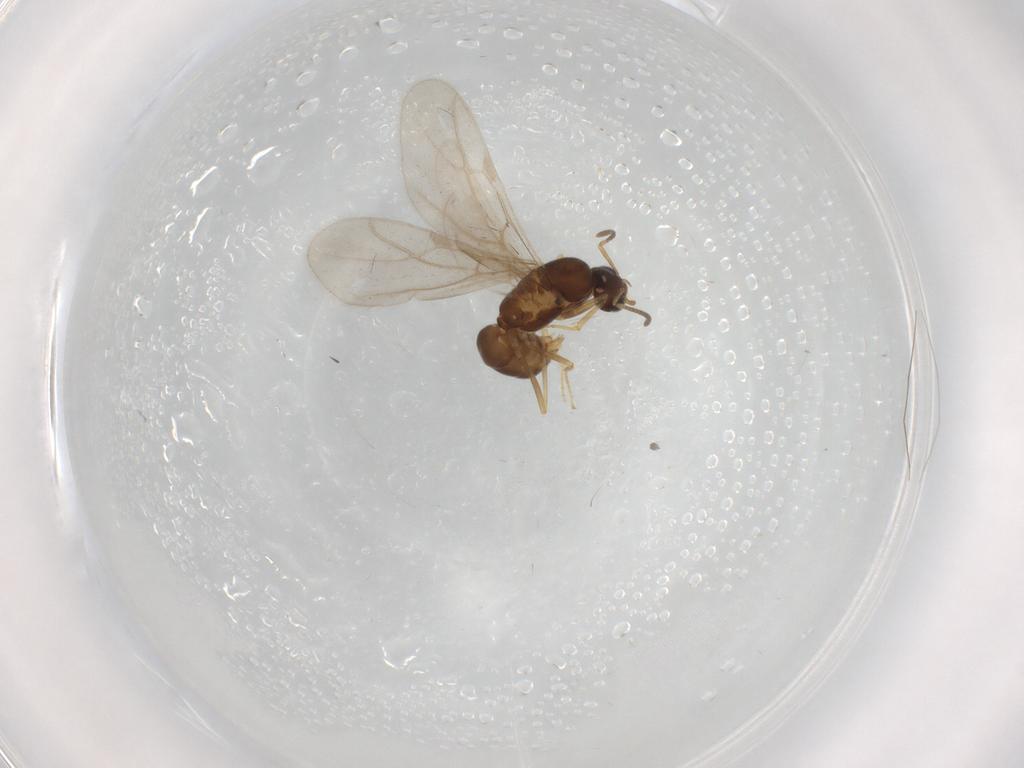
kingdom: Animalia
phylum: Arthropoda
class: Insecta
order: Hymenoptera
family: Formicidae
